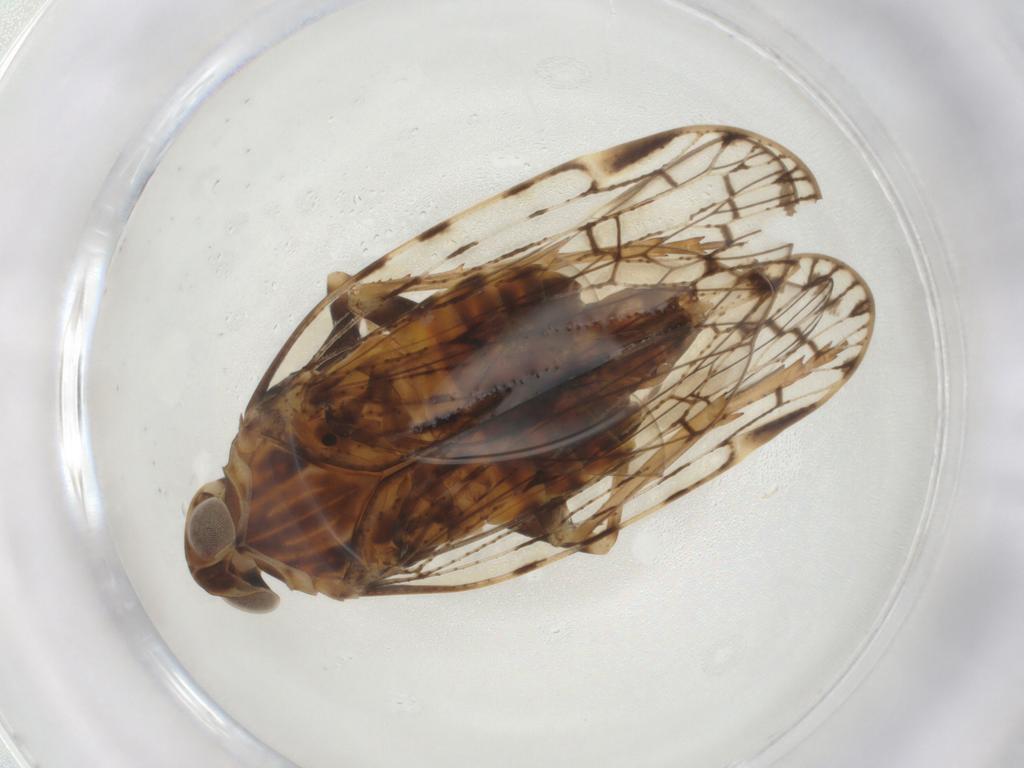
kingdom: Animalia
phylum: Arthropoda
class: Insecta
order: Hemiptera
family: Cixiidae
